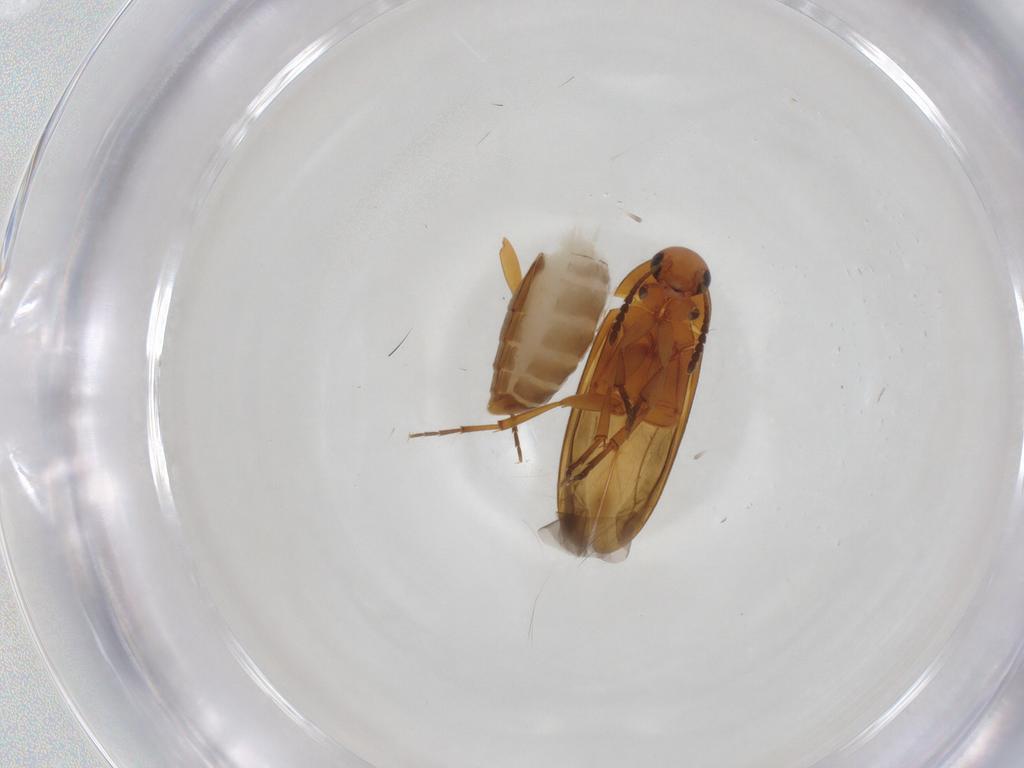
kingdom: Animalia
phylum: Arthropoda
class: Insecta
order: Coleoptera
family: Scraptiidae
